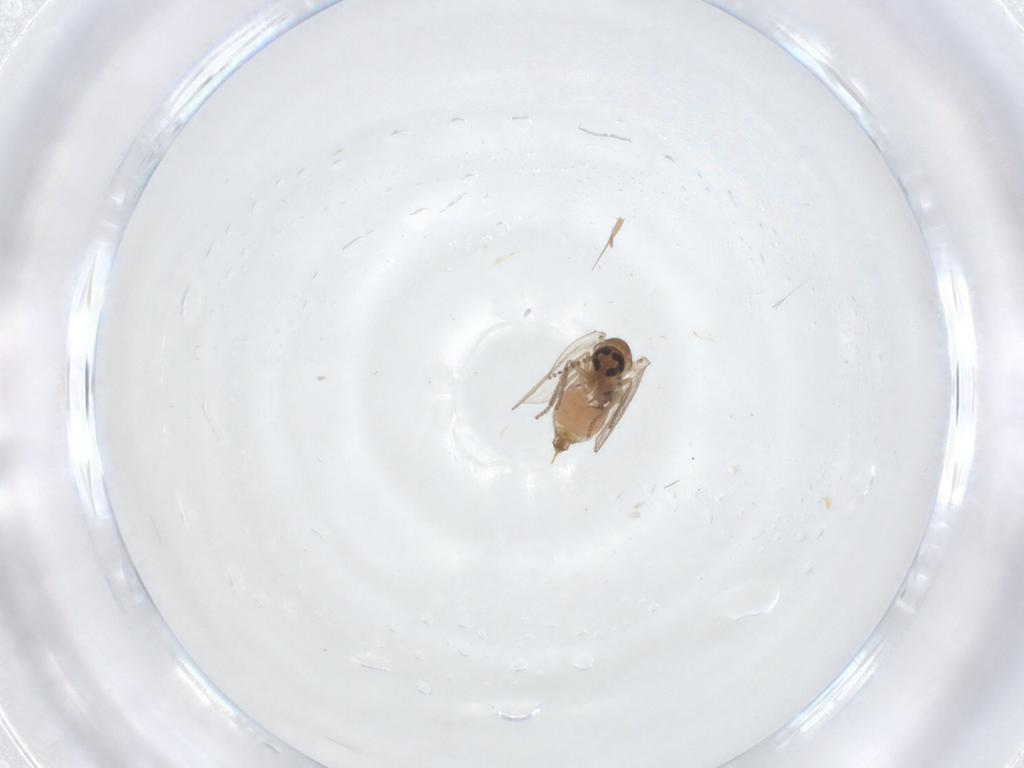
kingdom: Animalia
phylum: Arthropoda
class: Insecta
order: Diptera
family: Psychodidae
